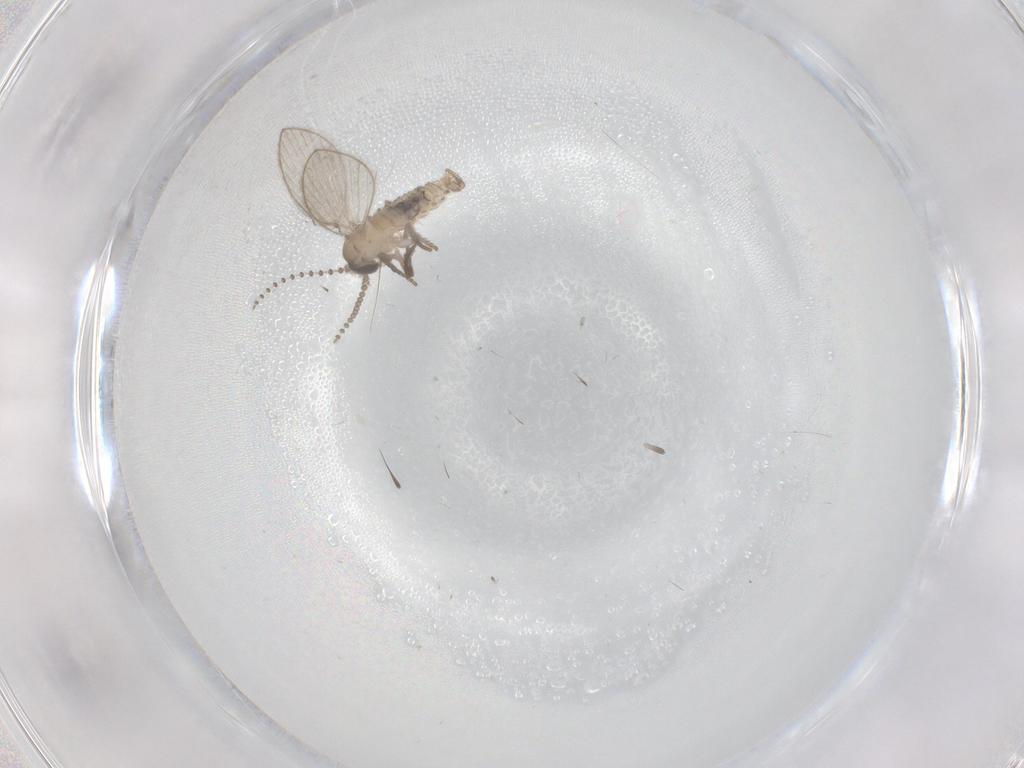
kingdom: Animalia
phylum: Arthropoda
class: Insecta
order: Diptera
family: Psychodidae
